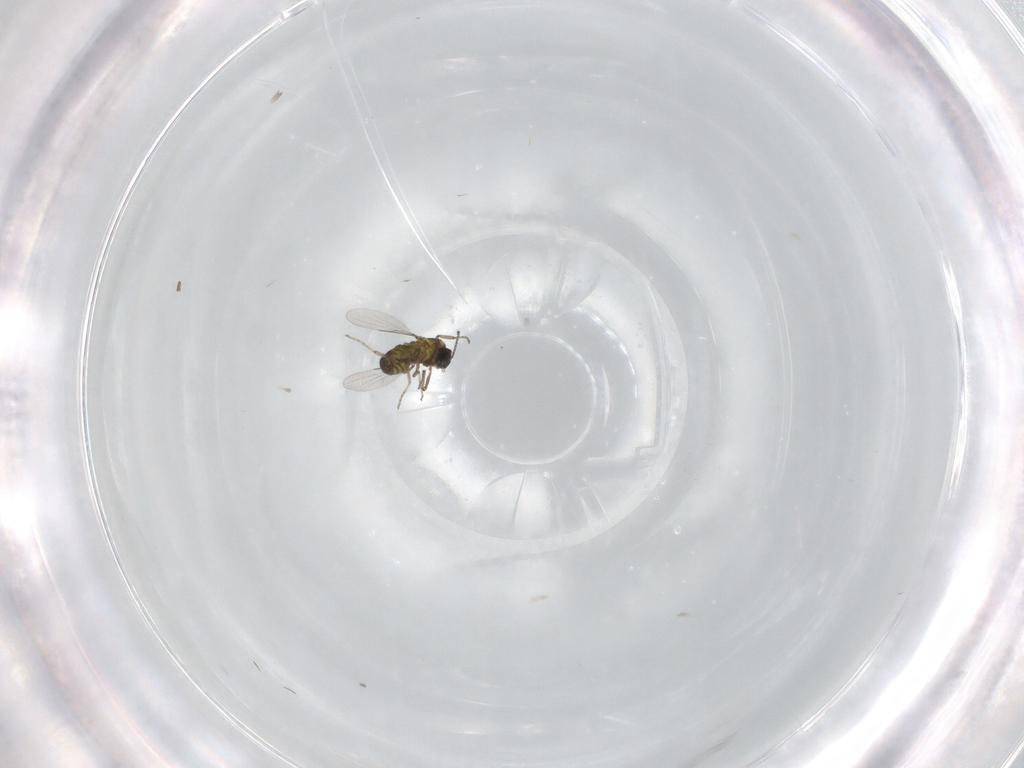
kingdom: Animalia
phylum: Arthropoda
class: Insecta
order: Diptera
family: Ceratopogonidae
